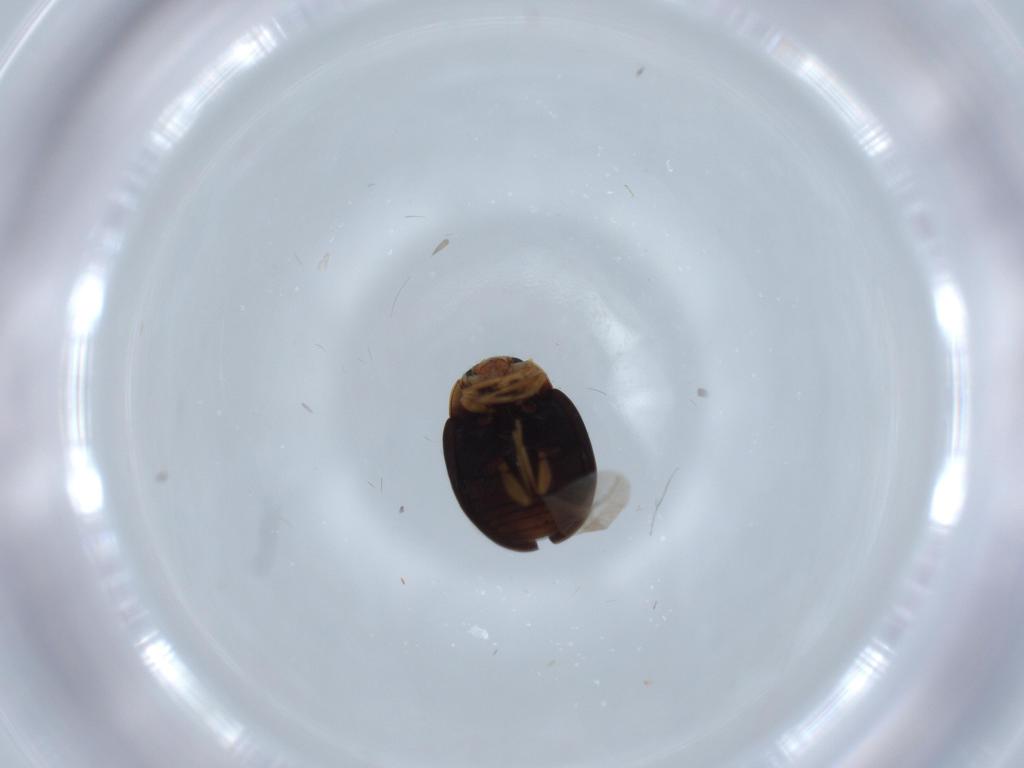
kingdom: Animalia
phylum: Arthropoda
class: Insecta
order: Coleoptera
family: Coccinellidae
